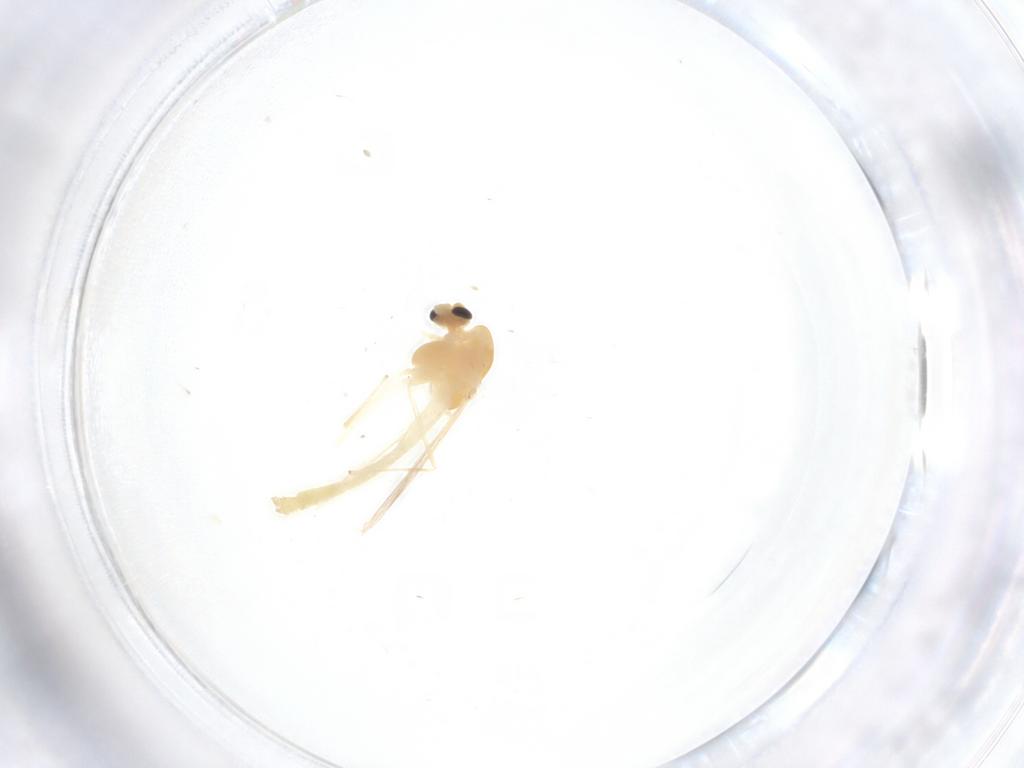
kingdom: Animalia
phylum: Arthropoda
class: Insecta
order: Diptera
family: Chironomidae
